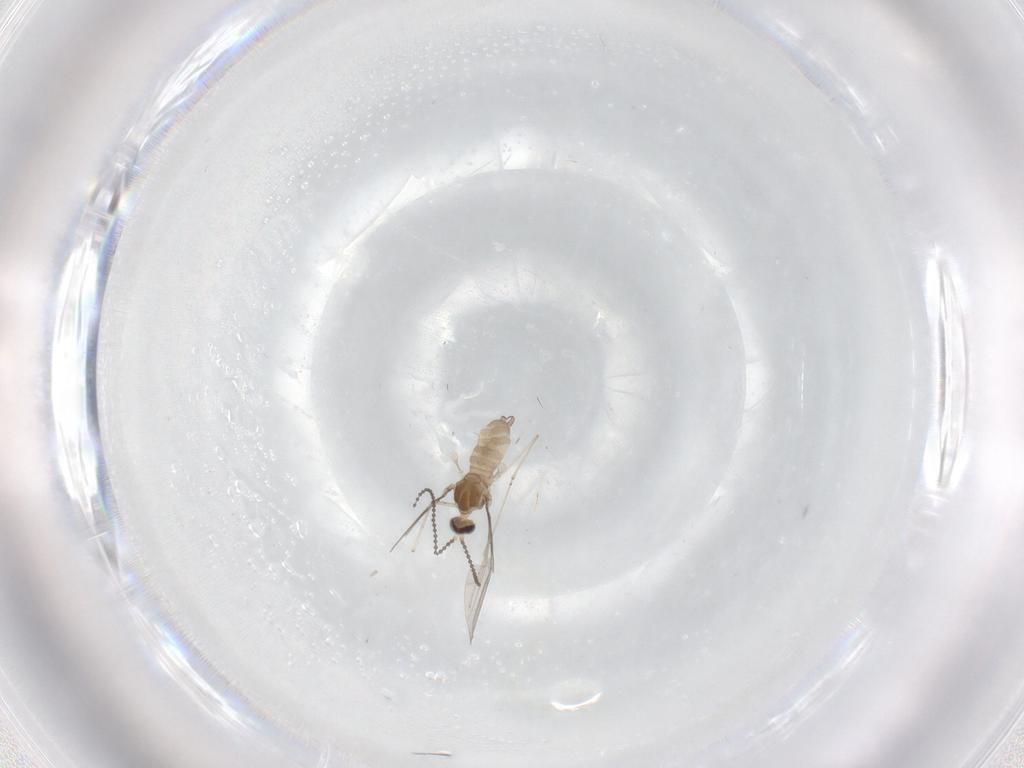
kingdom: Animalia
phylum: Arthropoda
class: Insecta
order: Diptera
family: Cecidomyiidae
